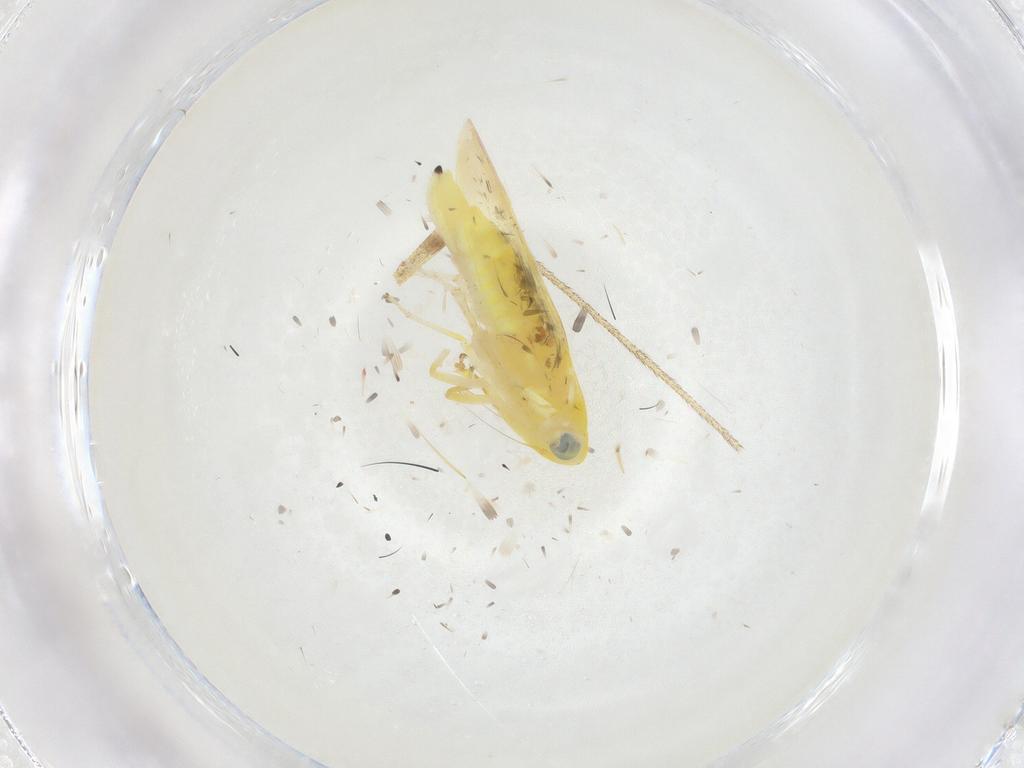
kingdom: Animalia
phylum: Arthropoda
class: Insecta
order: Hemiptera
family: Cicadellidae
